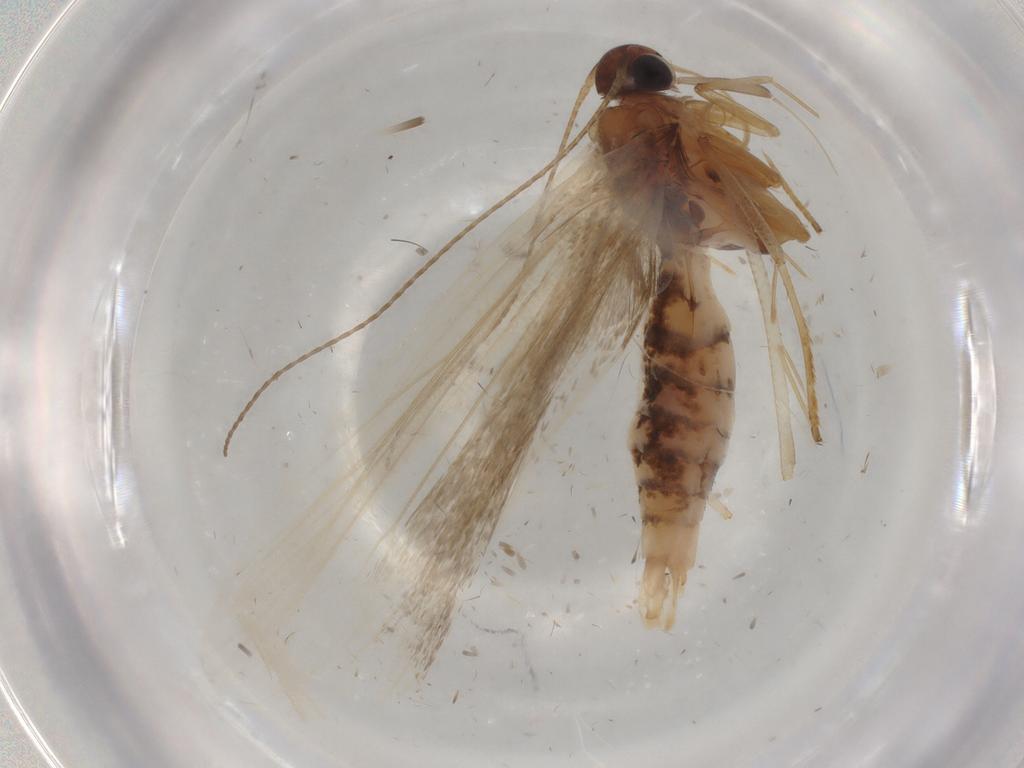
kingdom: Animalia
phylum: Arthropoda
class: Insecta
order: Lepidoptera
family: Gelechiidae
